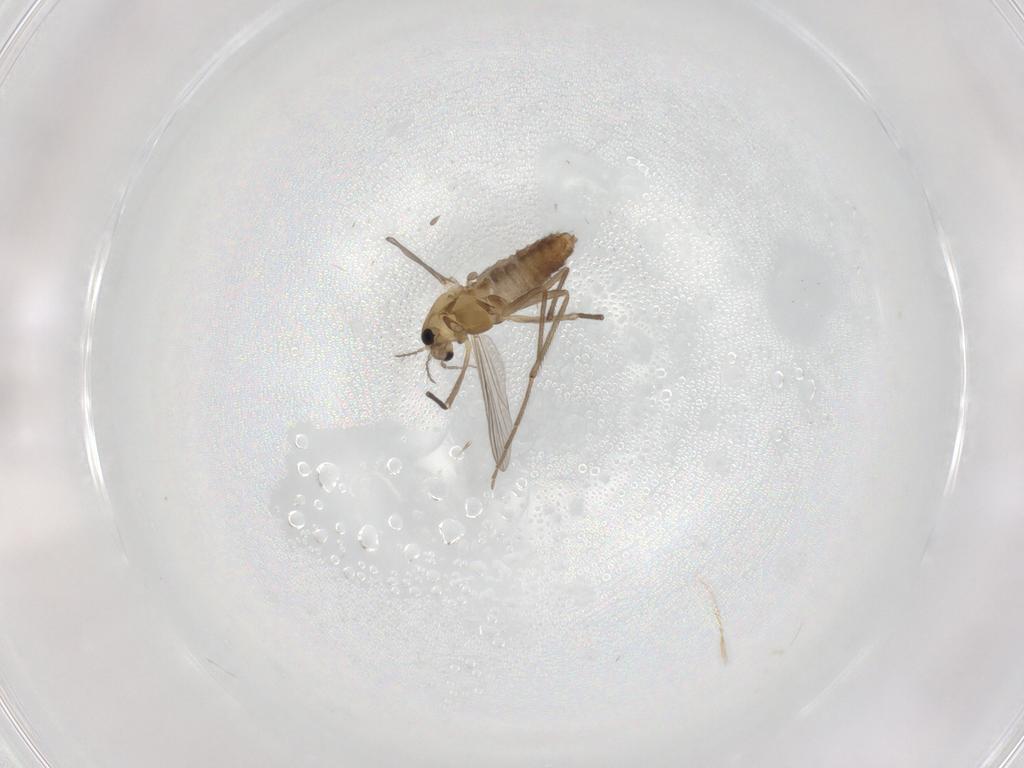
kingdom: Animalia
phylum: Arthropoda
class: Insecta
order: Diptera
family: Chironomidae
